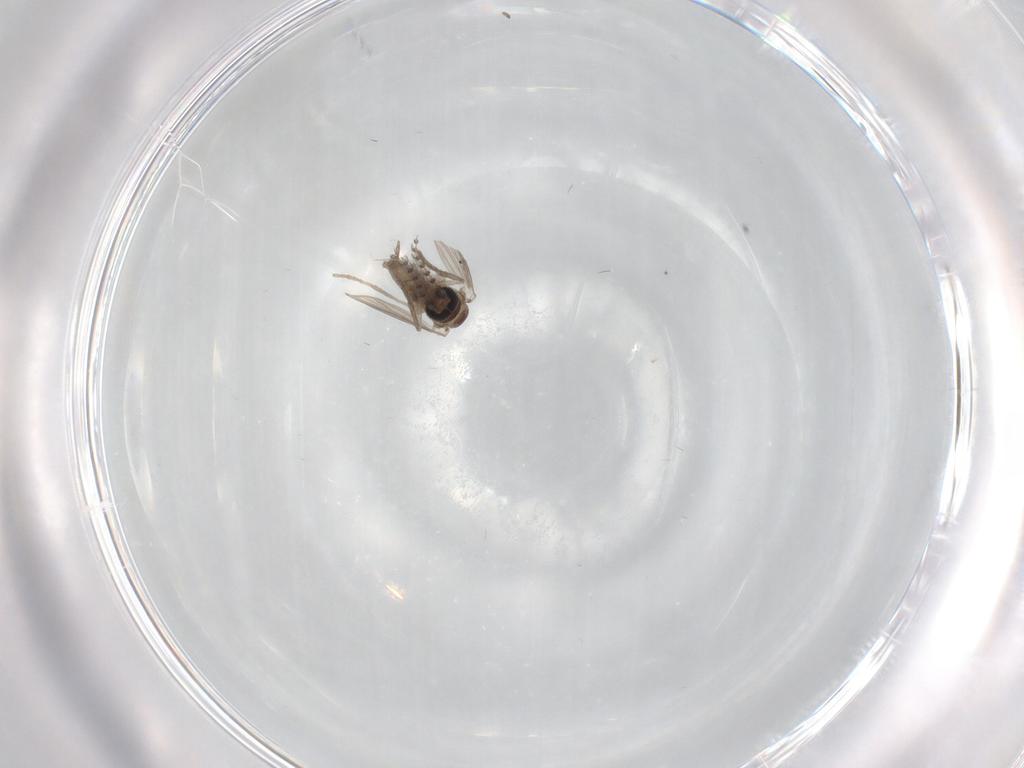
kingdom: Animalia
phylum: Arthropoda
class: Insecta
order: Diptera
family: Psychodidae
